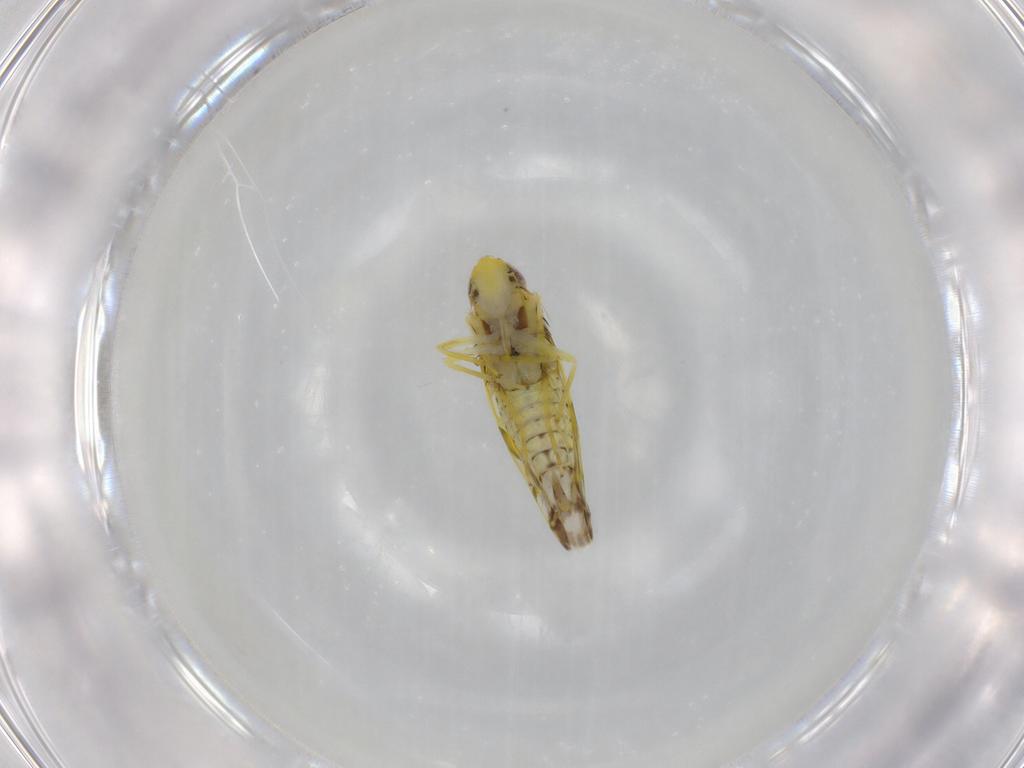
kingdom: Animalia
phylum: Arthropoda
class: Insecta
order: Hemiptera
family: Cicadellidae
